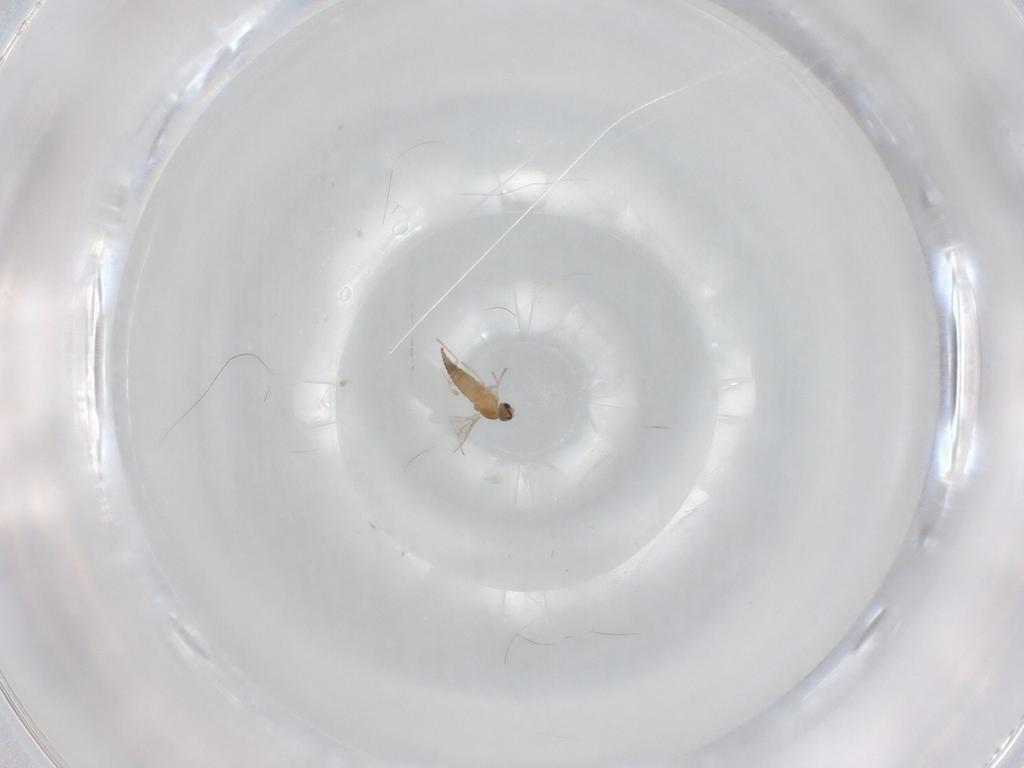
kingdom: Animalia
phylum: Arthropoda
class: Insecta
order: Diptera
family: Cecidomyiidae
